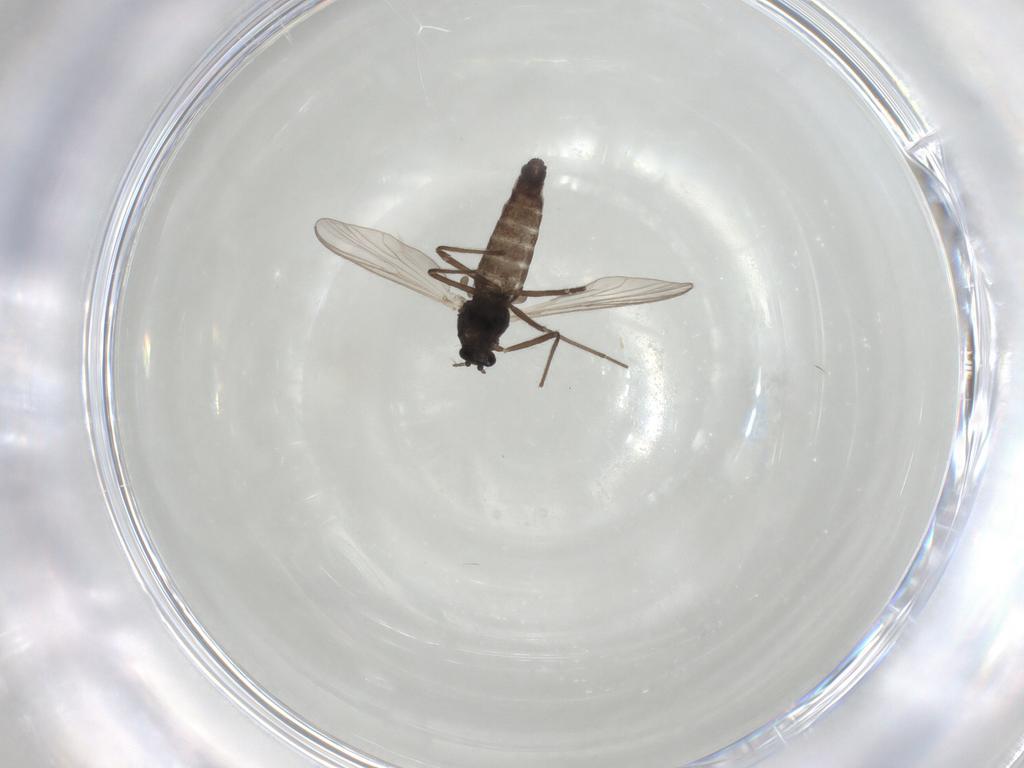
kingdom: Animalia
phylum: Arthropoda
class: Insecta
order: Diptera
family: Chironomidae
